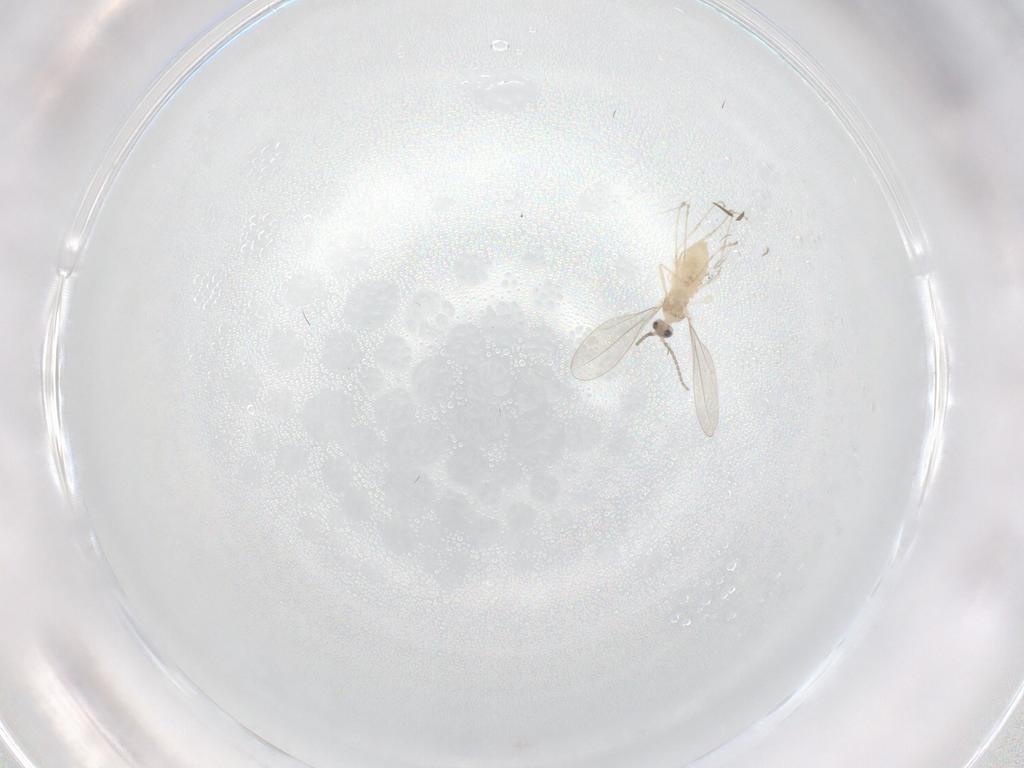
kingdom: Animalia
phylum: Arthropoda
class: Insecta
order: Diptera
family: Cecidomyiidae
